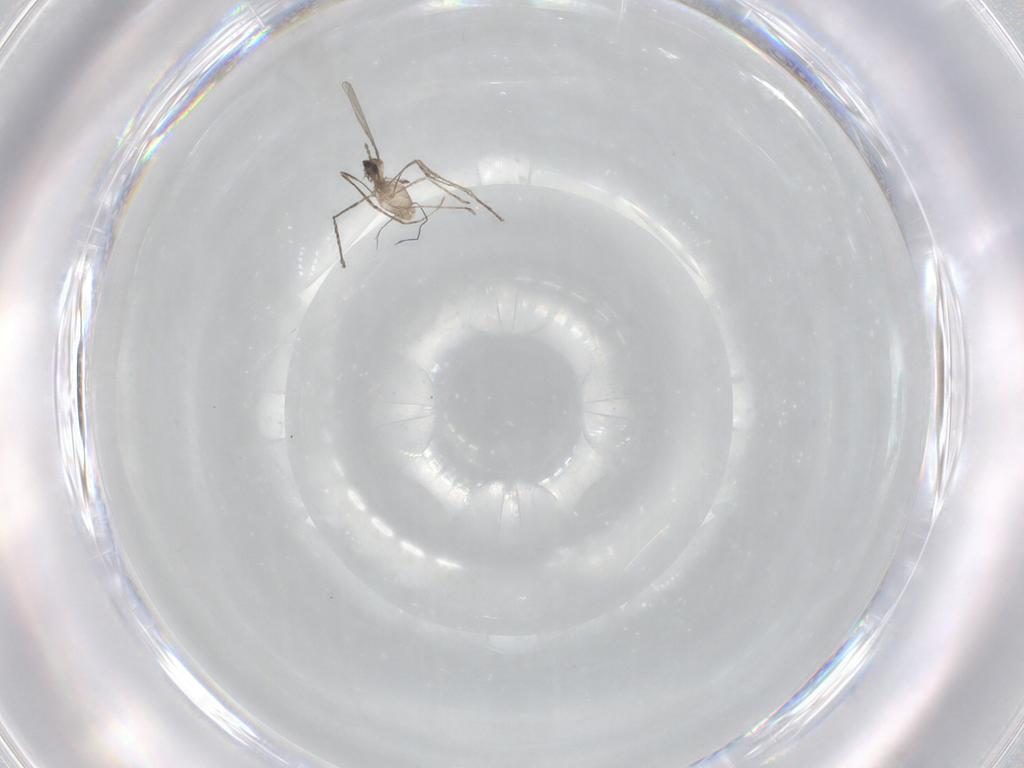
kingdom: Animalia
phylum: Arthropoda
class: Insecta
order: Diptera
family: Cecidomyiidae
